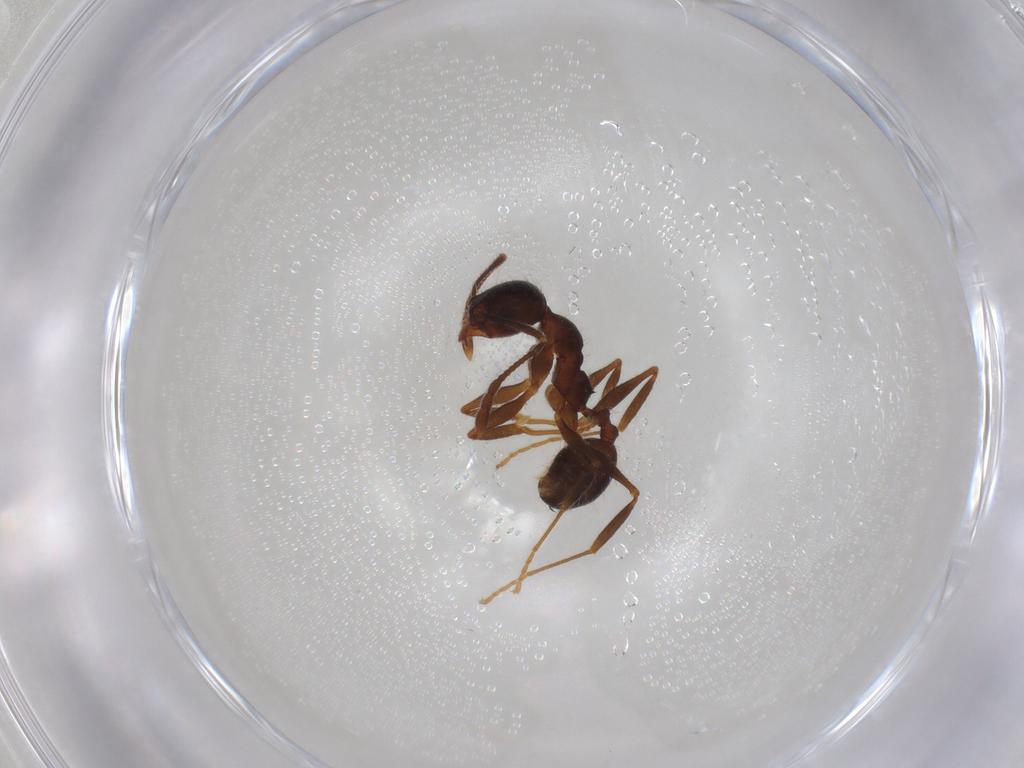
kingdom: Animalia
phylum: Arthropoda
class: Insecta
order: Hymenoptera
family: Formicidae
